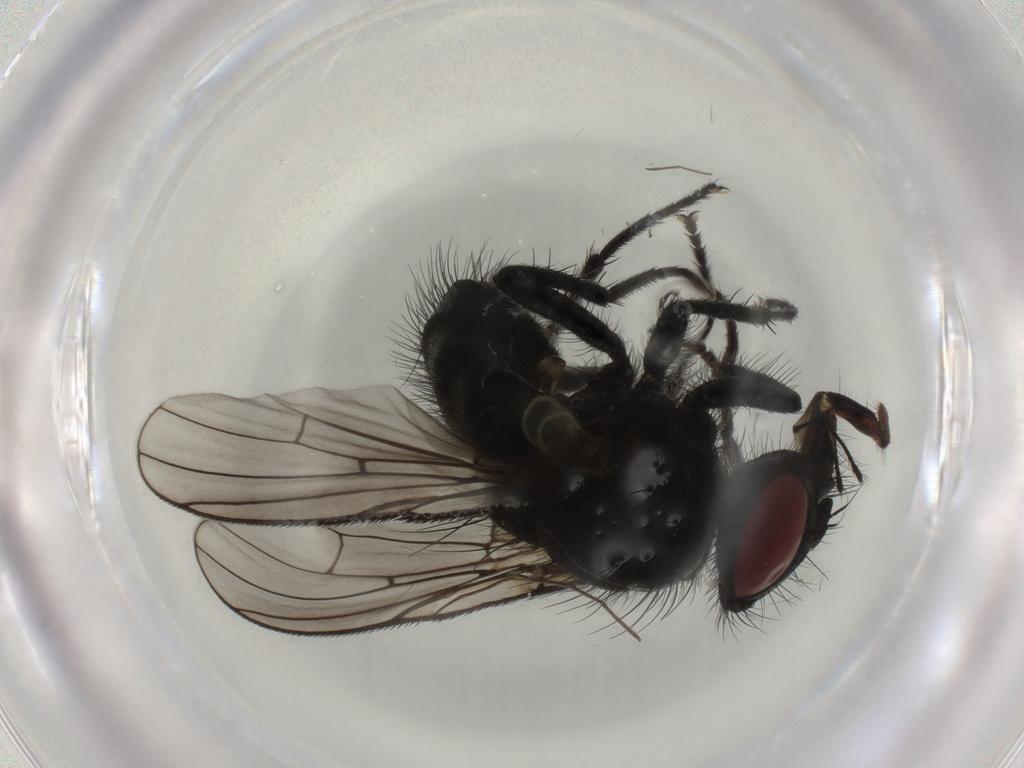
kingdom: Animalia
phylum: Arthropoda
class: Insecta
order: Diptera
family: Muscidae
